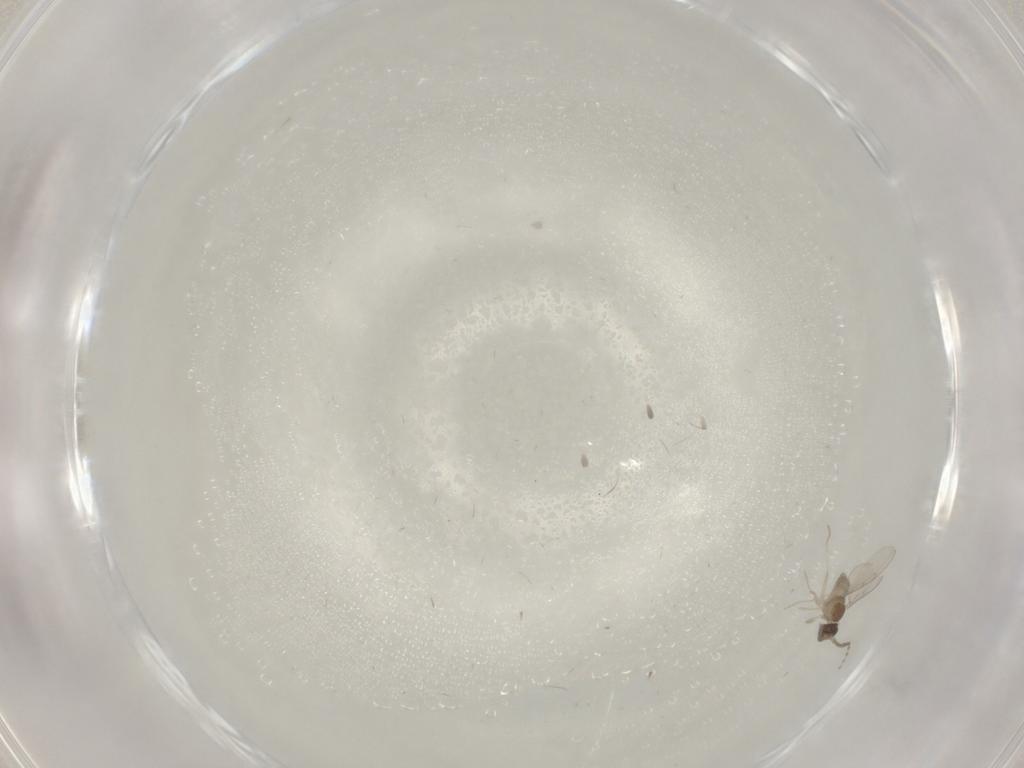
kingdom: Animalia
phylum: Arthropoda
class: Insecta
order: Diptera
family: Cecidomyiidae
